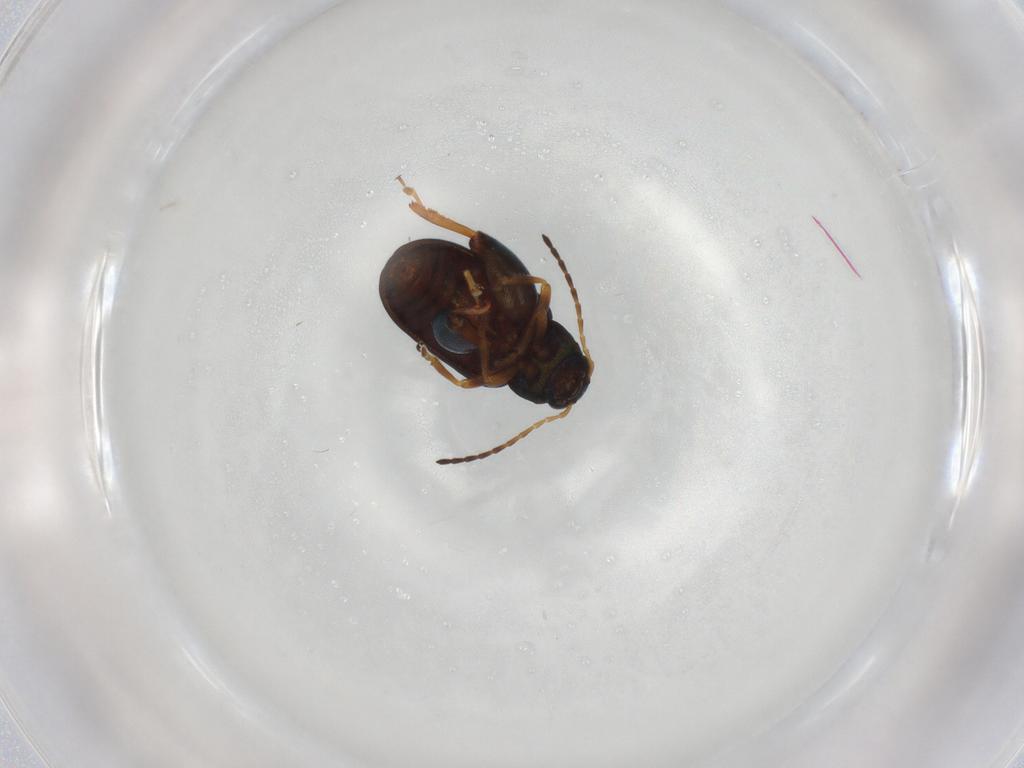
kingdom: Animalia
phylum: Arthropoda
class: Insecta
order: Coleoptera
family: Chrysomelidae
